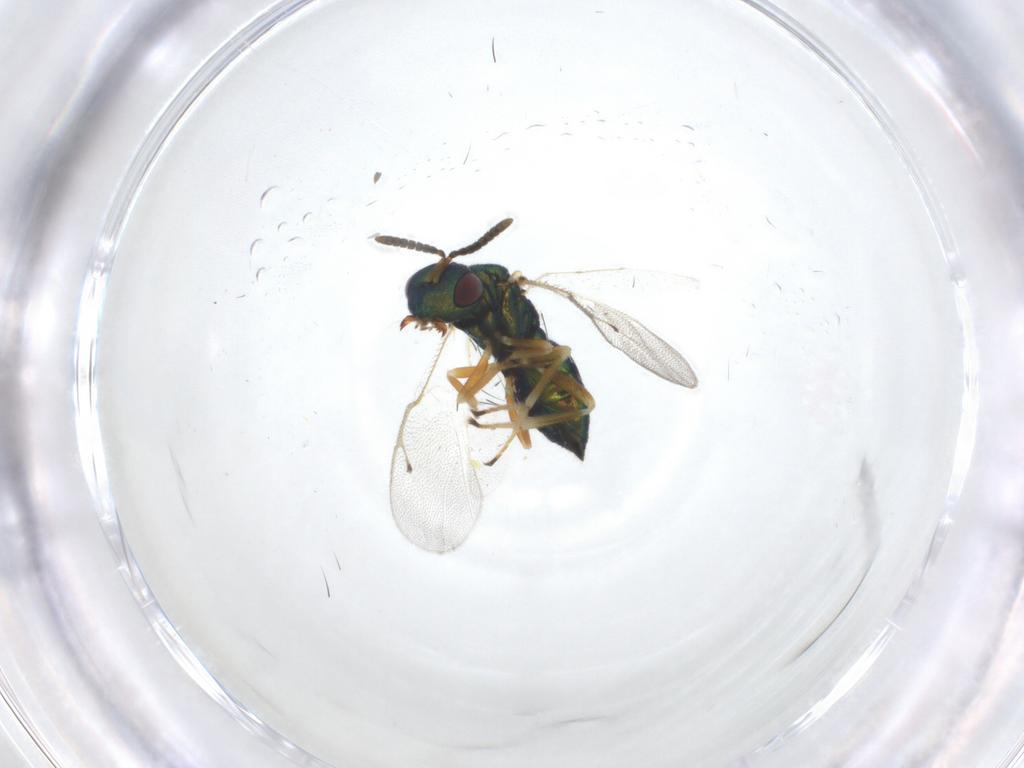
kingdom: Animalia
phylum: Arthropoda
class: Insecta
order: Hymenoptera
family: Pteromalidae
